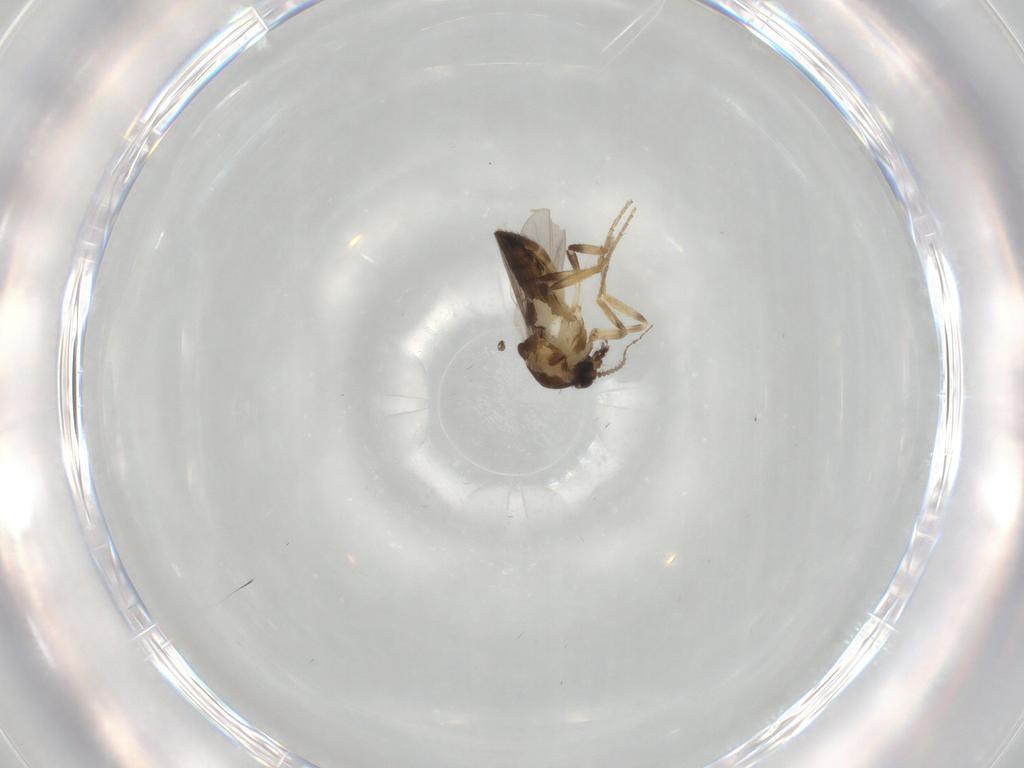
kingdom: Animalia
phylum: Arthropoda
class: Insecta
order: Diptera
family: Ceratopogonidae
